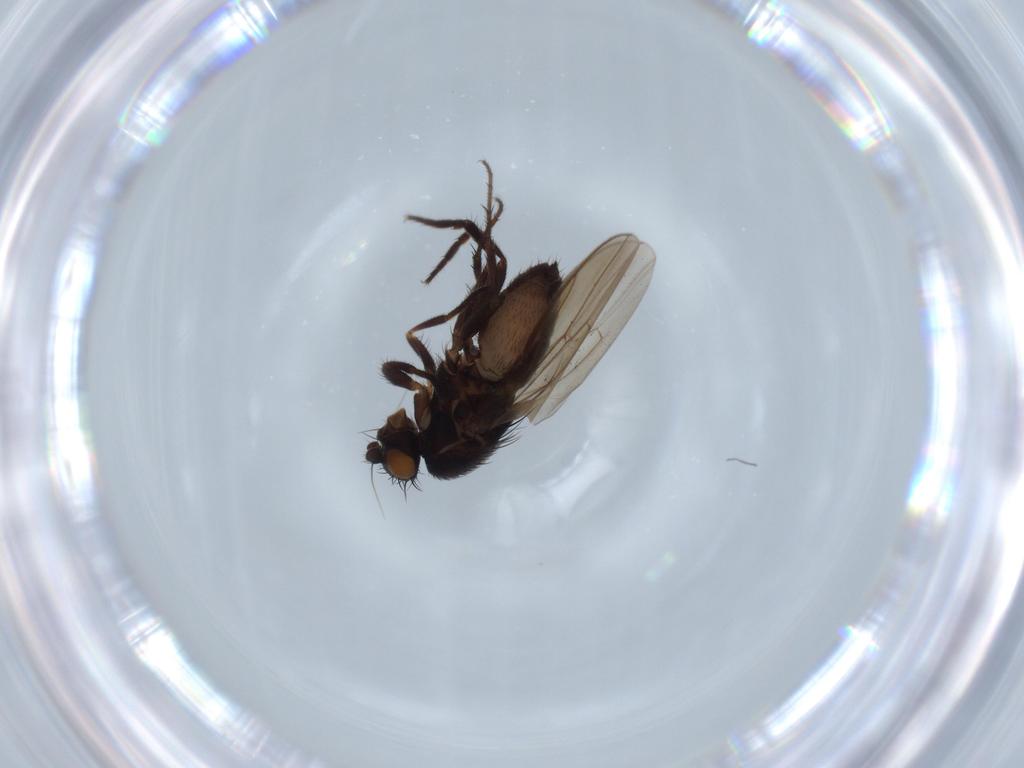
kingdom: Animalia
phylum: Arthropoda
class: Insecta
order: Diptera
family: Sphaeroceridae
